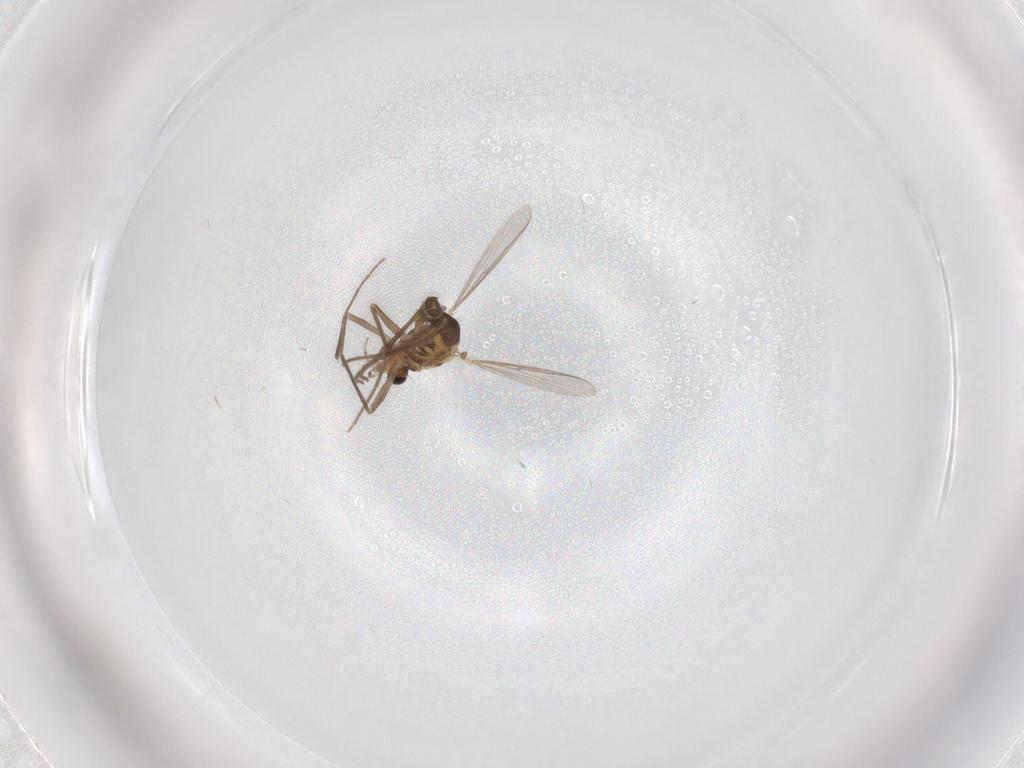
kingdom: Animalia
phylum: Arthropoda
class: Insecta
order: Diptera
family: Chironomidae
